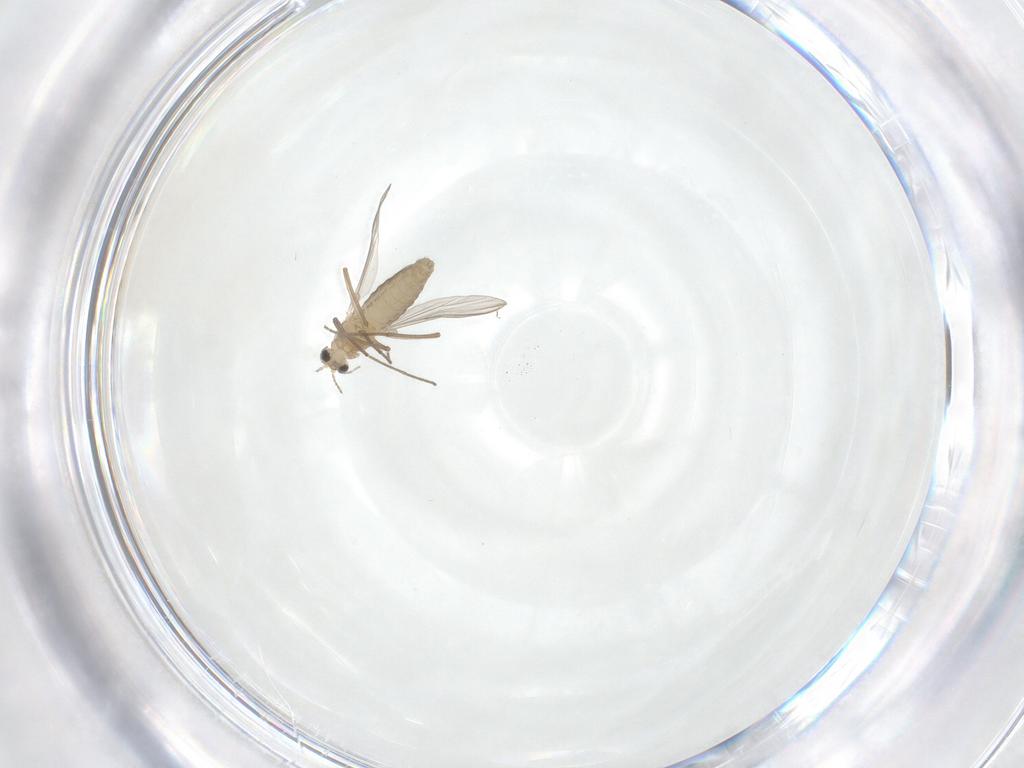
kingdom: Animalia
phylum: Arthropoda
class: Insecta
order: Diptera
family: Chironomidae
